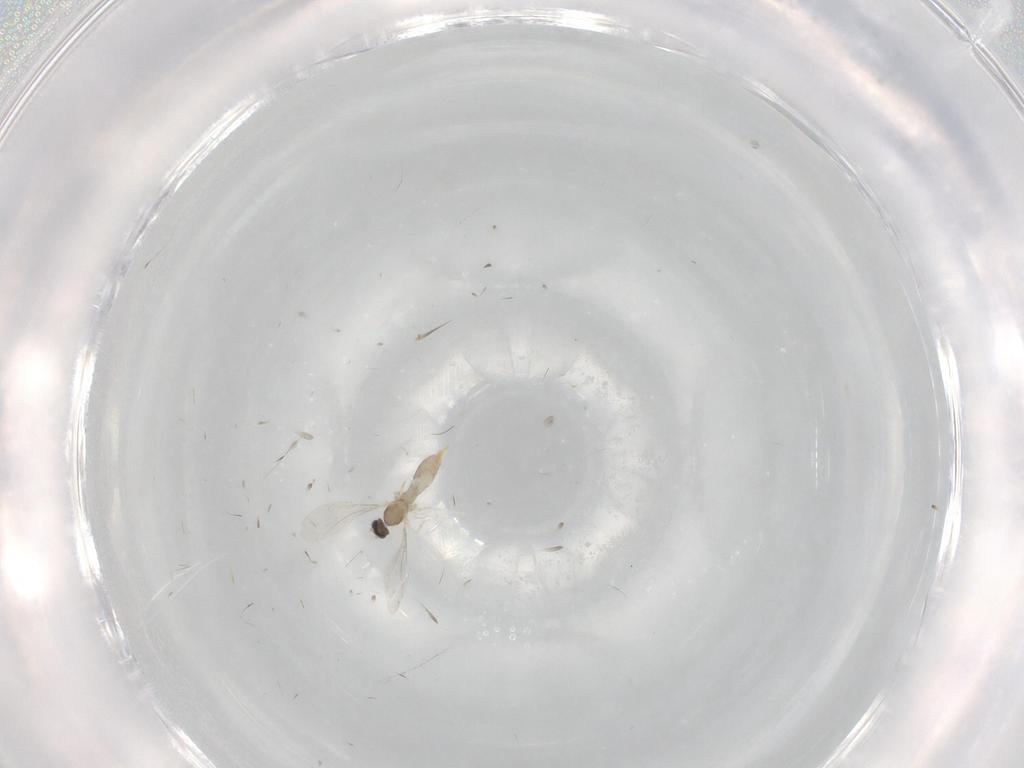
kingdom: Animalia
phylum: Arthropoda
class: Insecta
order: Diptera
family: Cecidomyiidae
